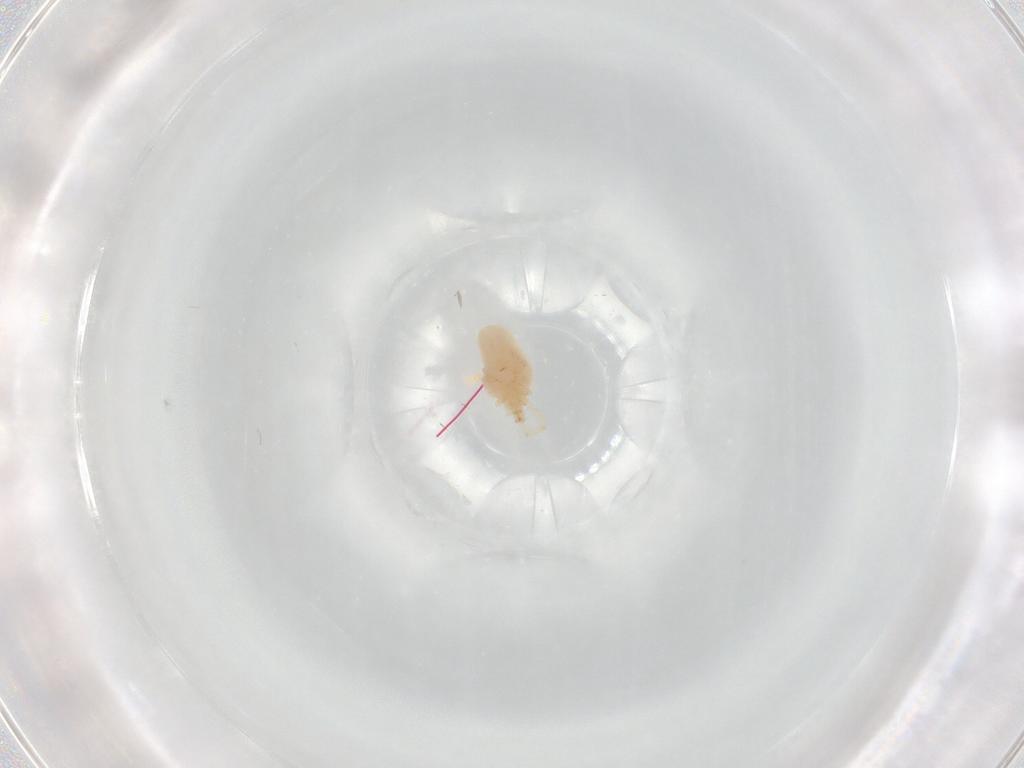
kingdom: Animalia
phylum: Arthropoda
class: Arachnida
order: Trombidiformes
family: Erythraeidae
